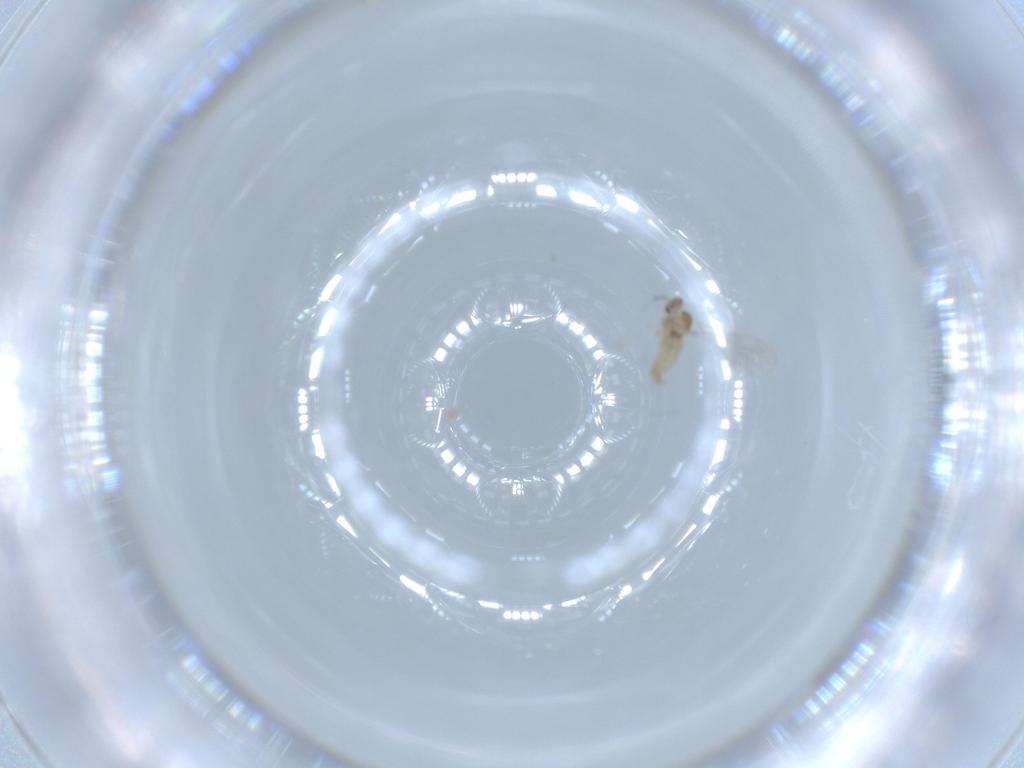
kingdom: Animalia
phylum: Arthropoda
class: Insecta
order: Diptera
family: Cecidomyiidae
